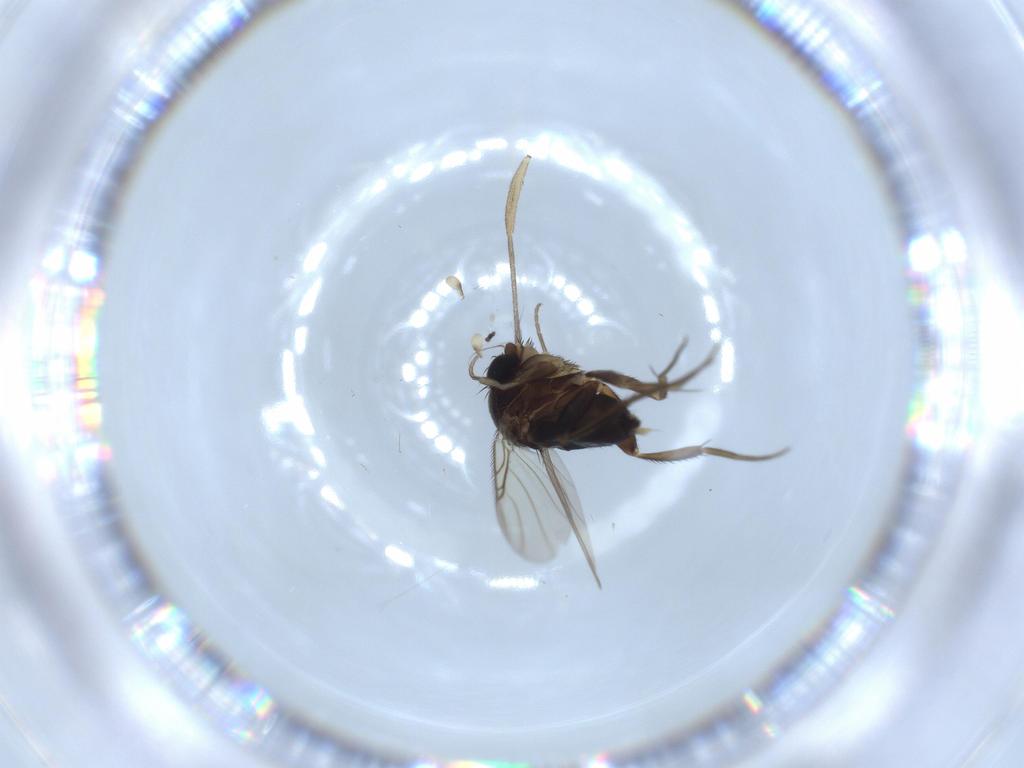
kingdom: Animalia
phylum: Arthropoda
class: Insecta
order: Diptera
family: Phoridae
